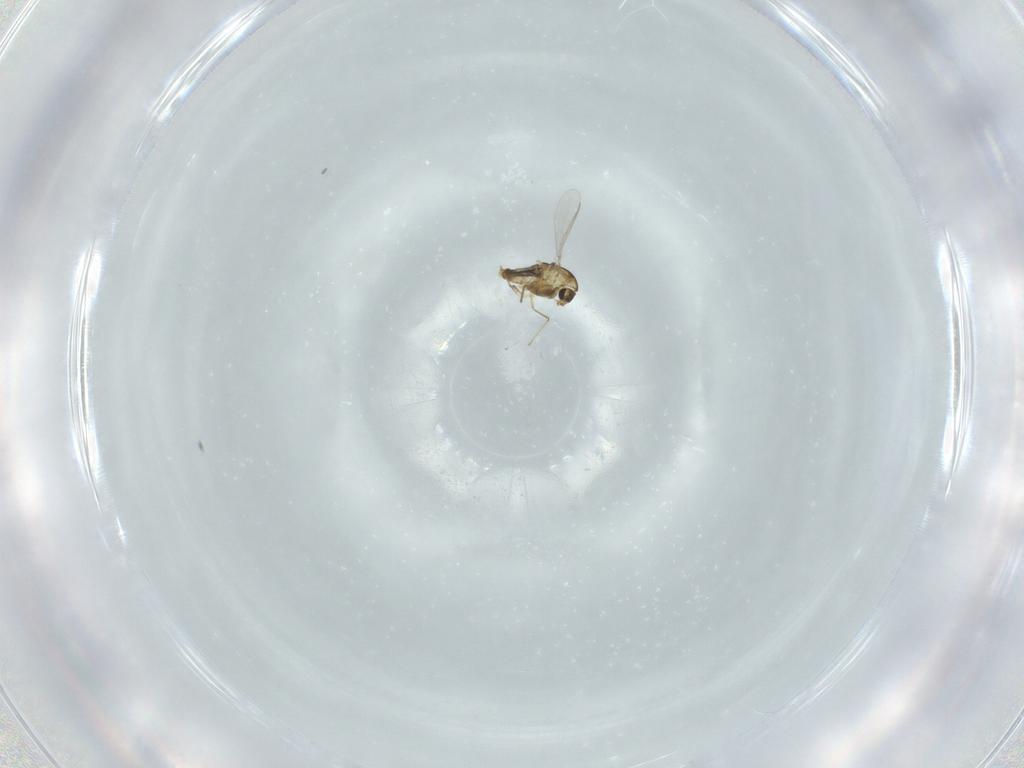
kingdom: Animalia
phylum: Arthropoda
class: Insecta
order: Diptera
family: Chironomidae
